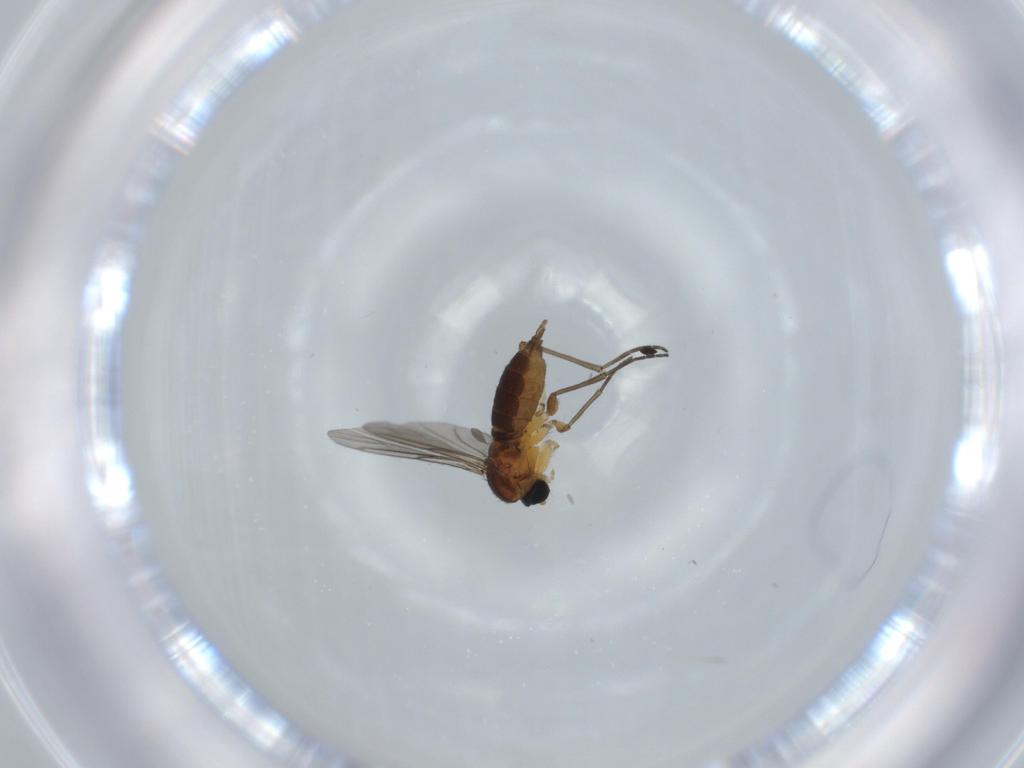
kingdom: Animalia
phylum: Arthropoda
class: Insecta
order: Diptera
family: Sciaridae
